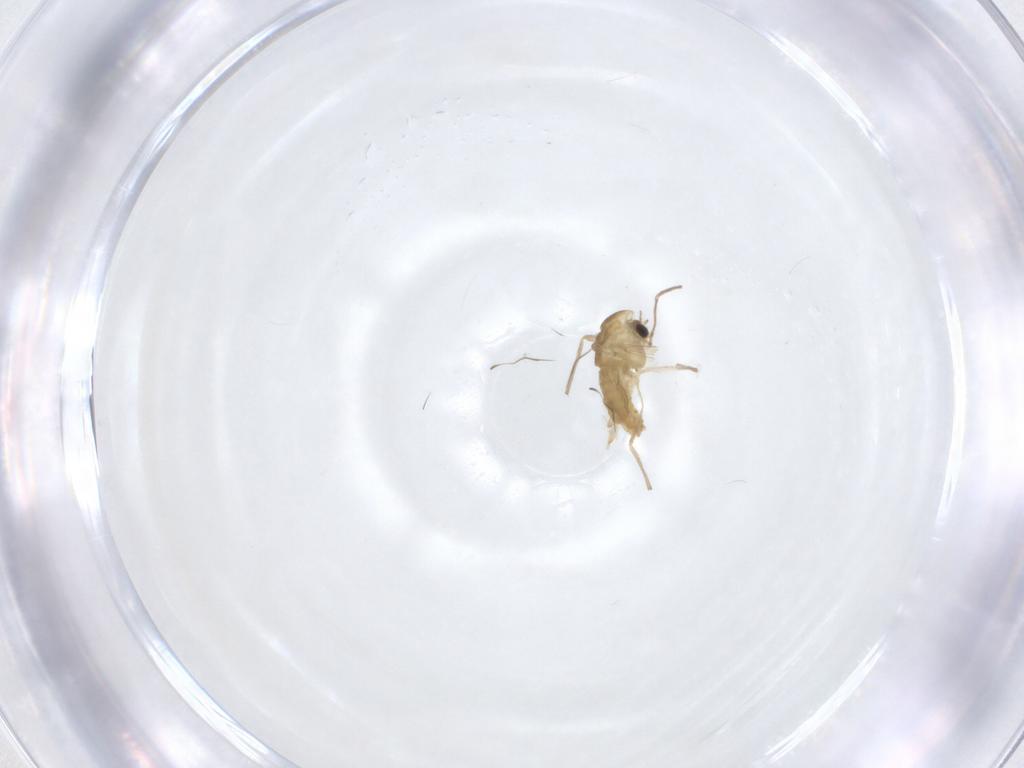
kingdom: Animalia
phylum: Arthropoda
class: Insecta
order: Diptera
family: Chironomidae
